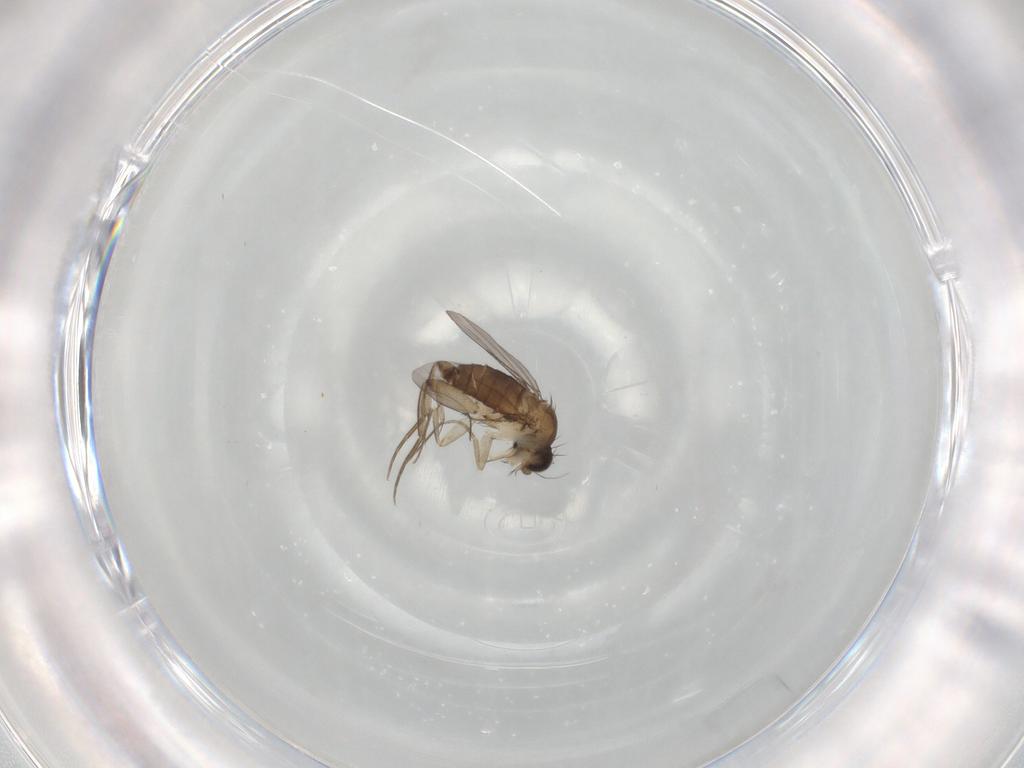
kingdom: Animalia
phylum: Arthropoda
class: Insecta
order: Diptera
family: Phoridae
